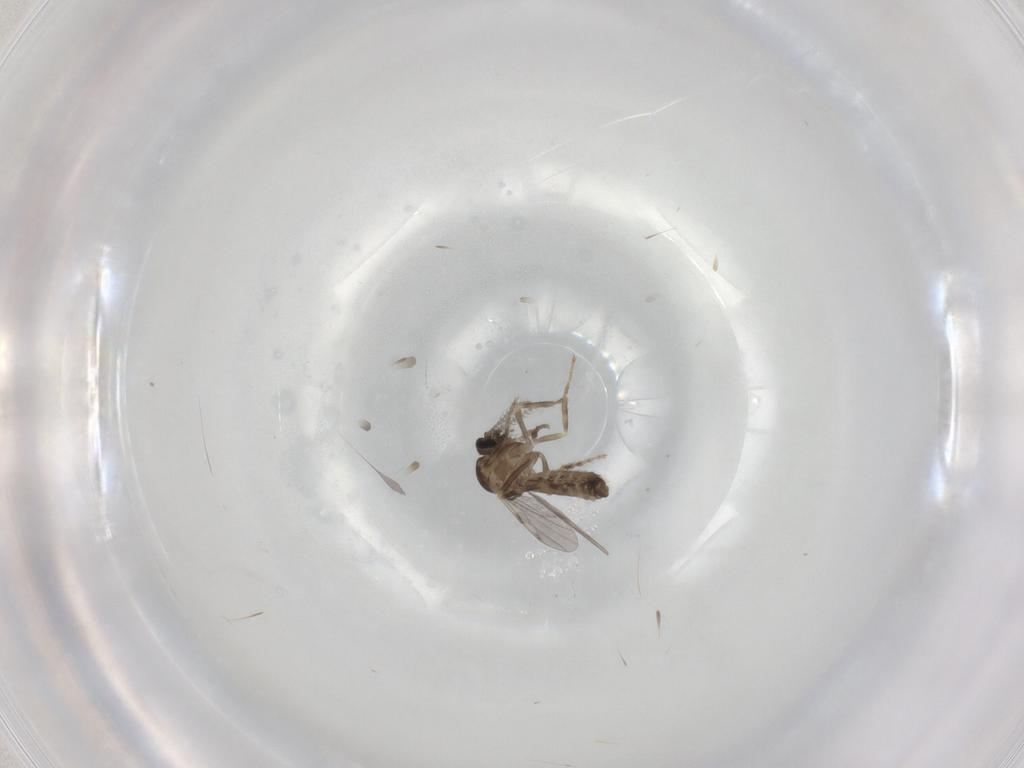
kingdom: Animalia
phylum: Arthropoda
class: Insecta
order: Diptera
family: Ceratopogonidae
